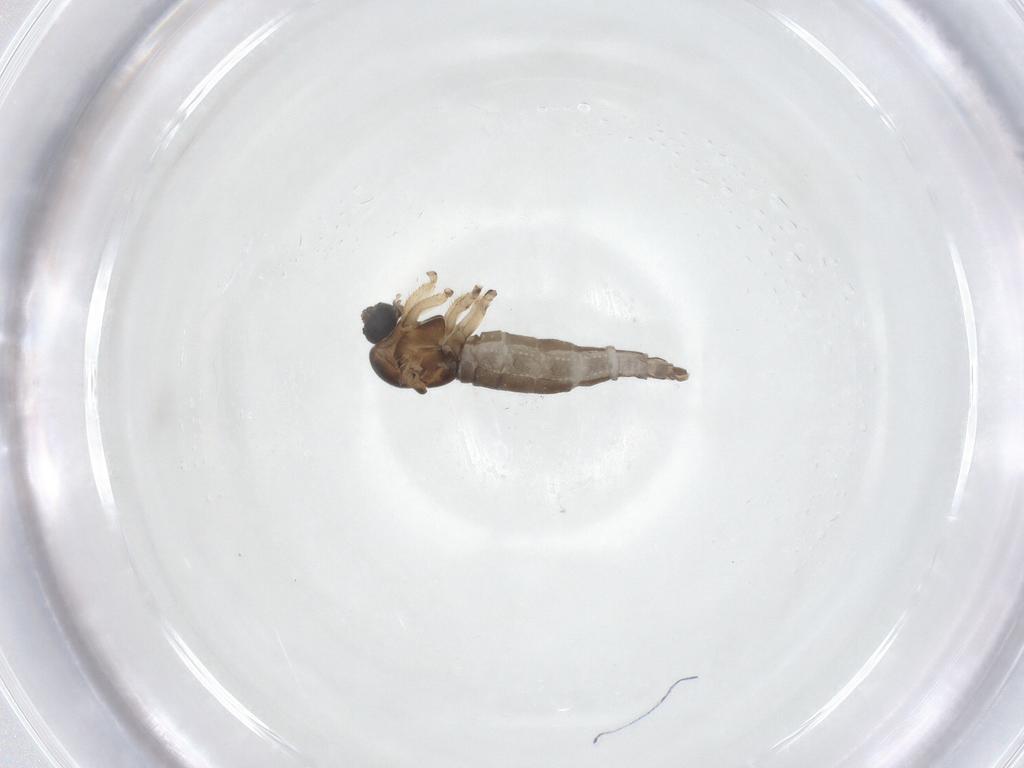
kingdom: Animalia
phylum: Arthropoda
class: Insecta
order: Diptera
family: Sciaridae
